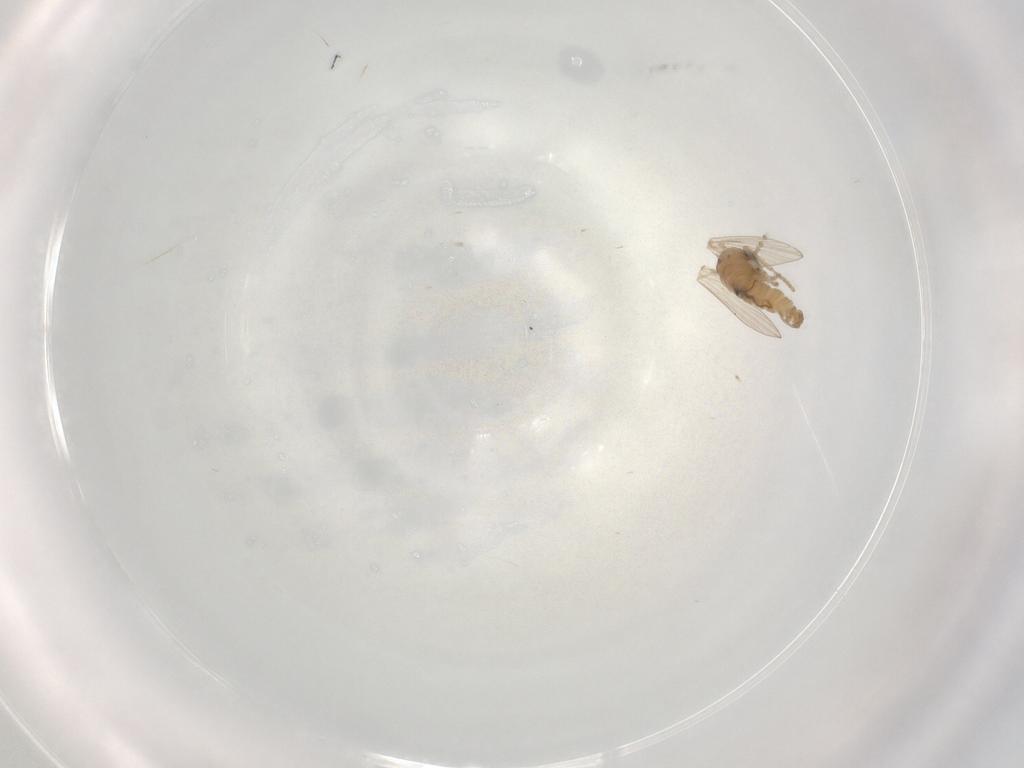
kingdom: Animalia
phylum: Arthropoda
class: Insecta
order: Diptera
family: Psychodidae
